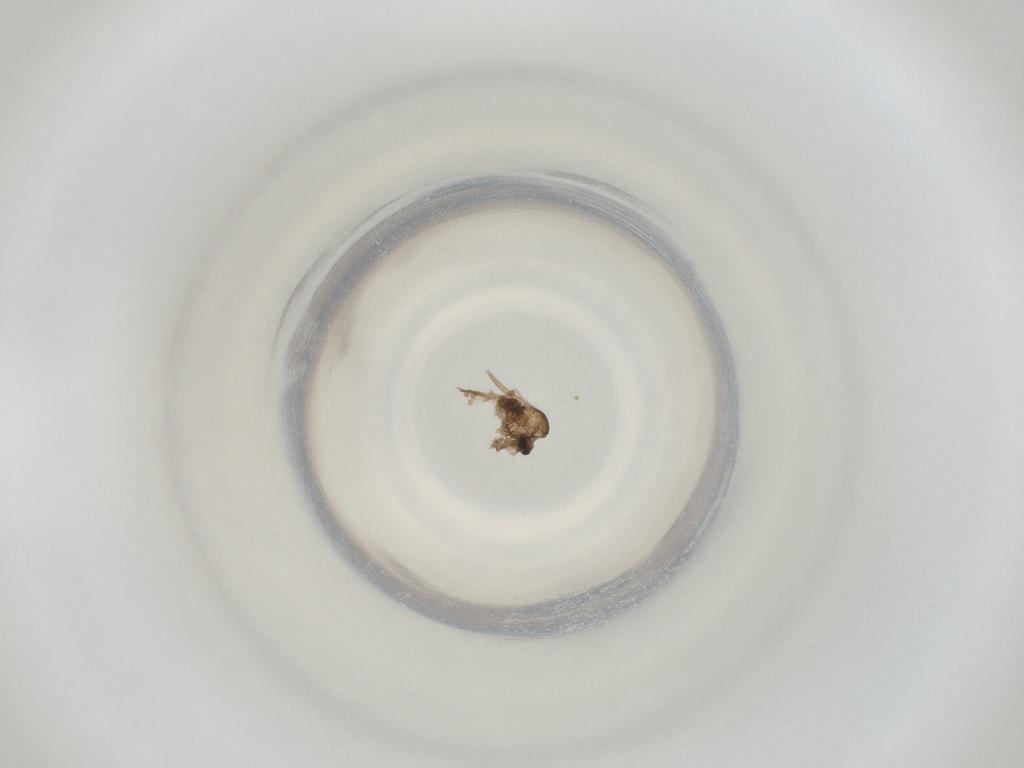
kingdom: Animalia
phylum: Arthropoda
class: Insecta
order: Diptera
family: Cecidomyiidae
